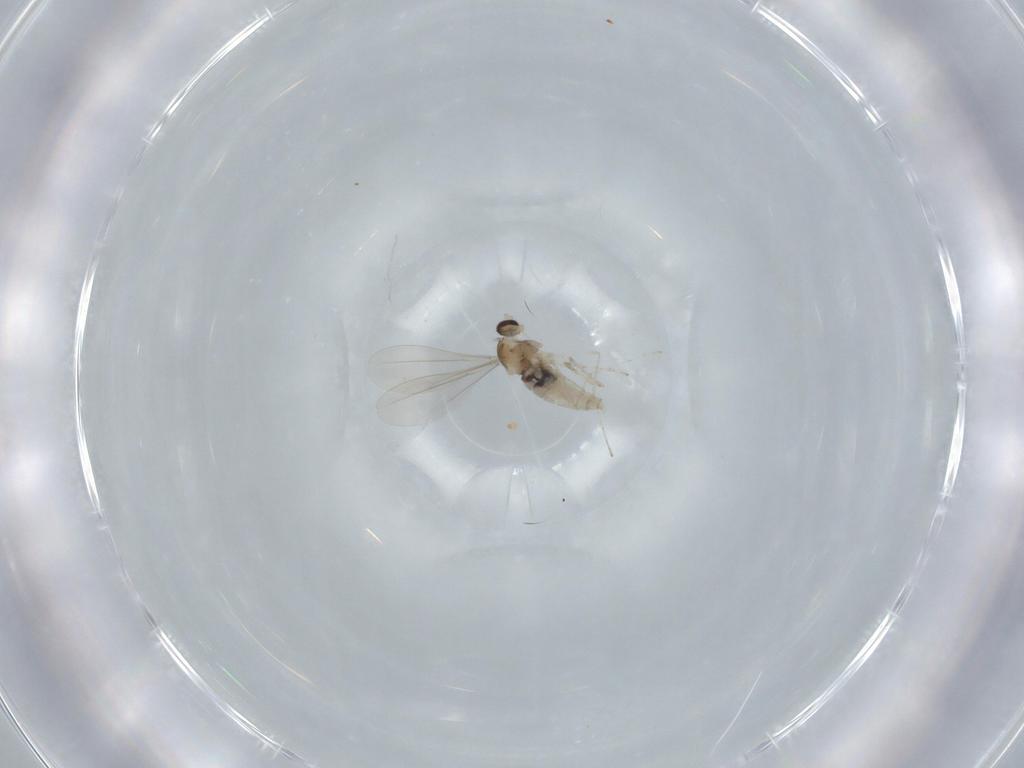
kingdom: Animalia
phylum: Arthropoda
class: Insecta
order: Diptera
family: Cecidomyiidae
